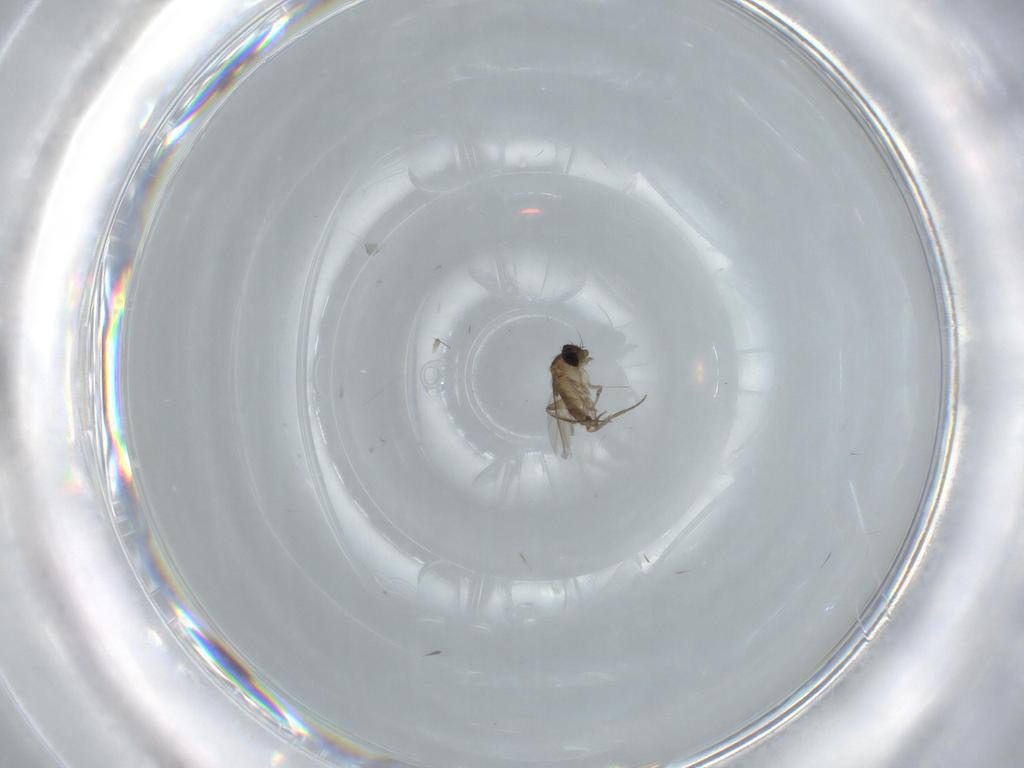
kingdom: Animalia
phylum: Arthropoda
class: Insecta
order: Diptera
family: Phoridae
